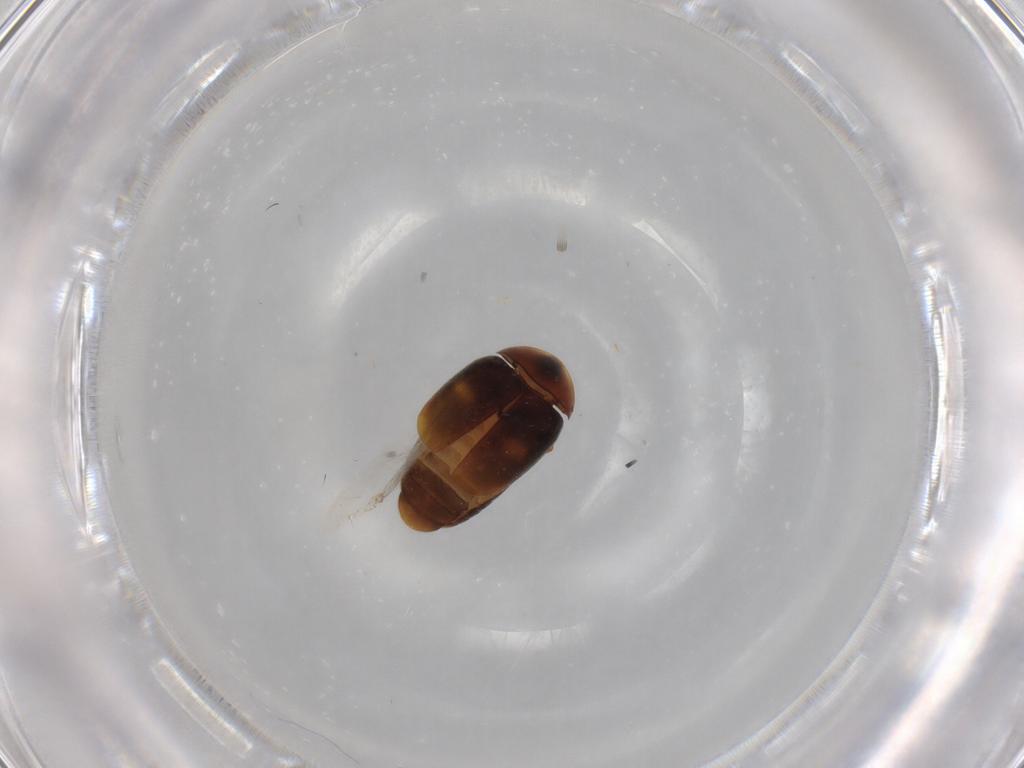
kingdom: Animalia
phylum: Arthropoda
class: Insecta
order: Coleoptera
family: Corylophidae
